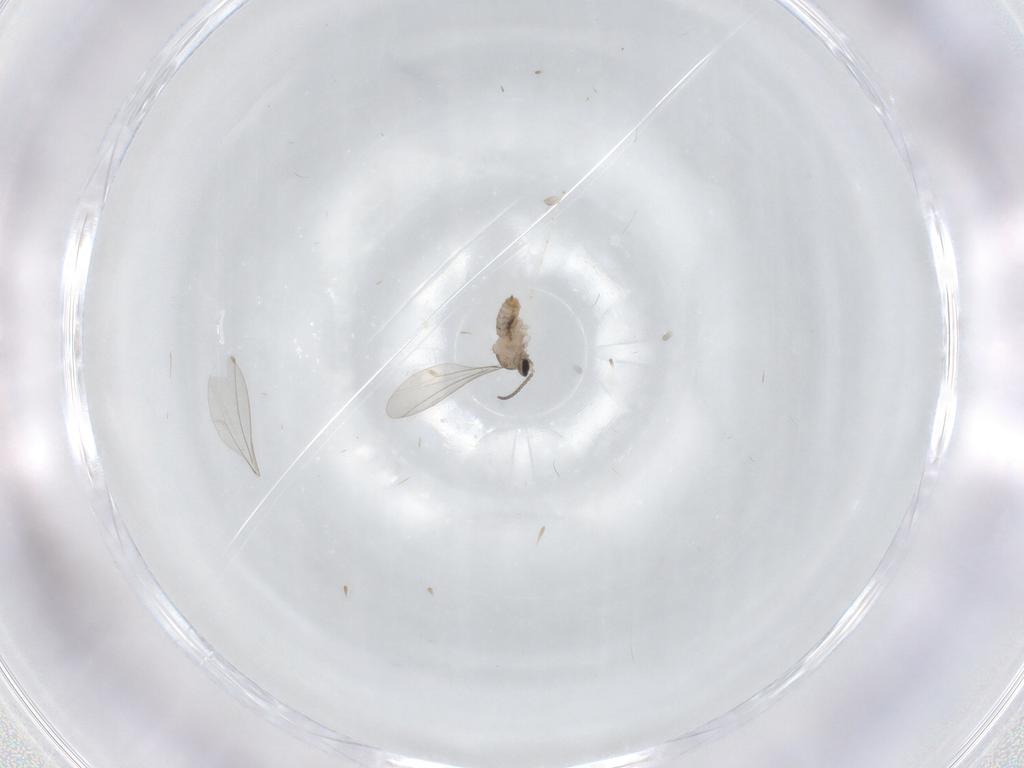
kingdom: Animalia
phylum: Arthropoda
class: Insecta
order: Diptera
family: Cecidomyiidae
